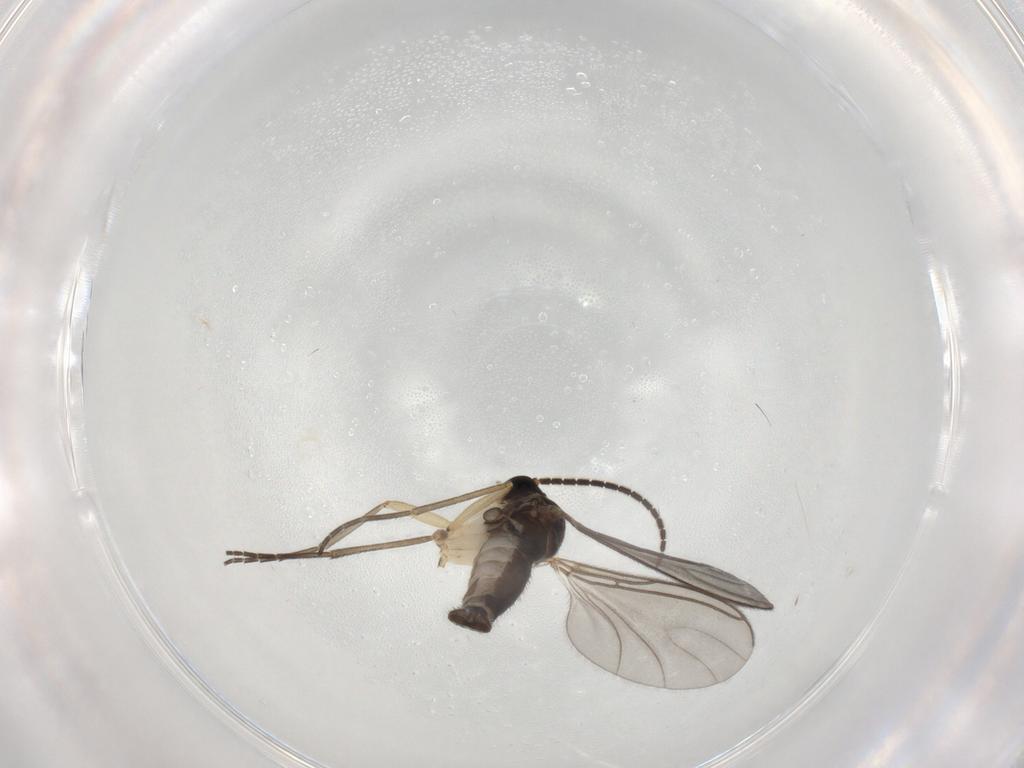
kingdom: Animalia
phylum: Arthropoda
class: Insecta
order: Diptera
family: Sciaridae
